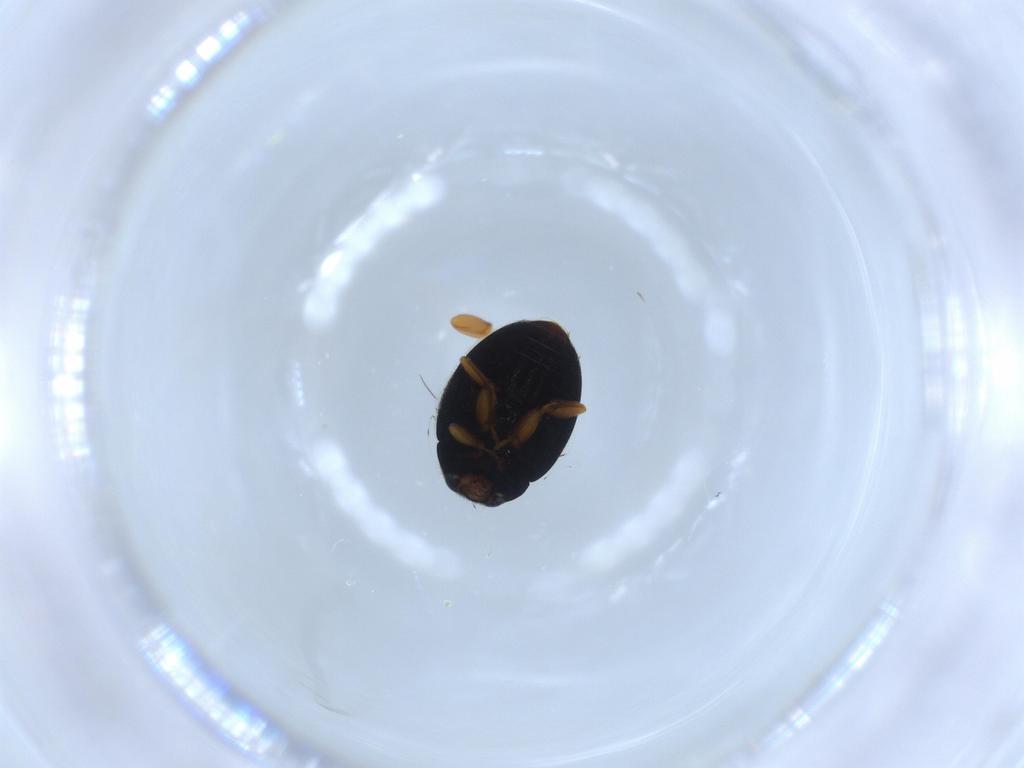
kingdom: Animalia
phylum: Arthropoda
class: Insecta
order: Coleoptera
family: Coccinellidae
